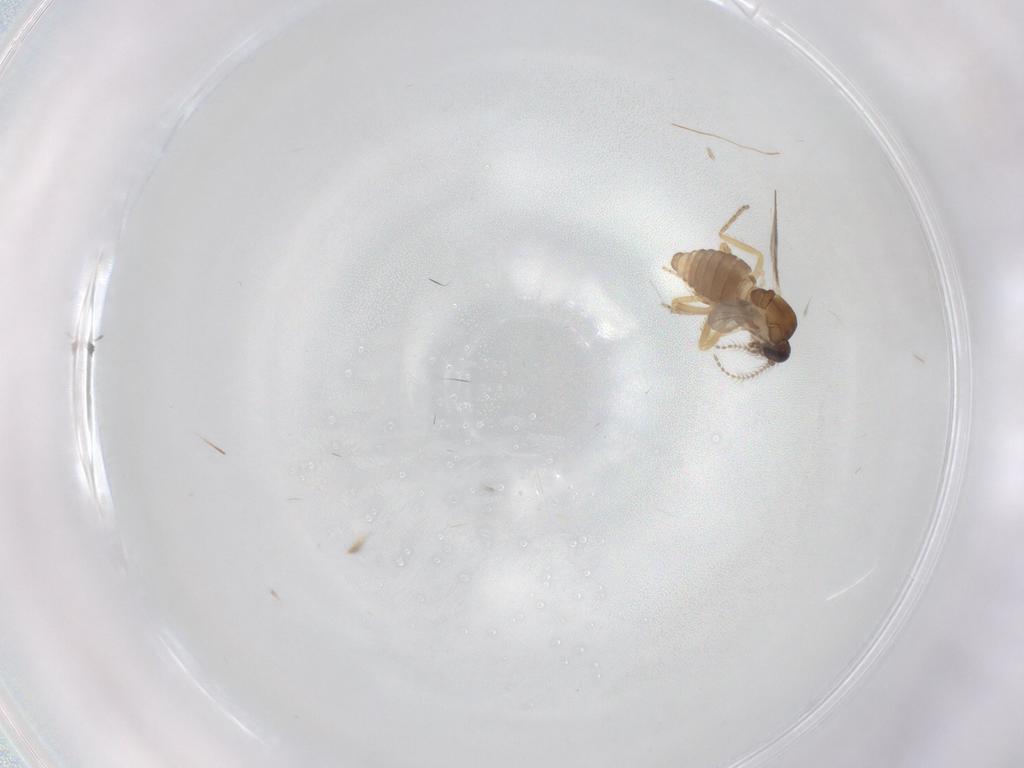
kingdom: Animalia
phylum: Arthropoda
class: Insecta
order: Diptera
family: Ceratopogonidae
